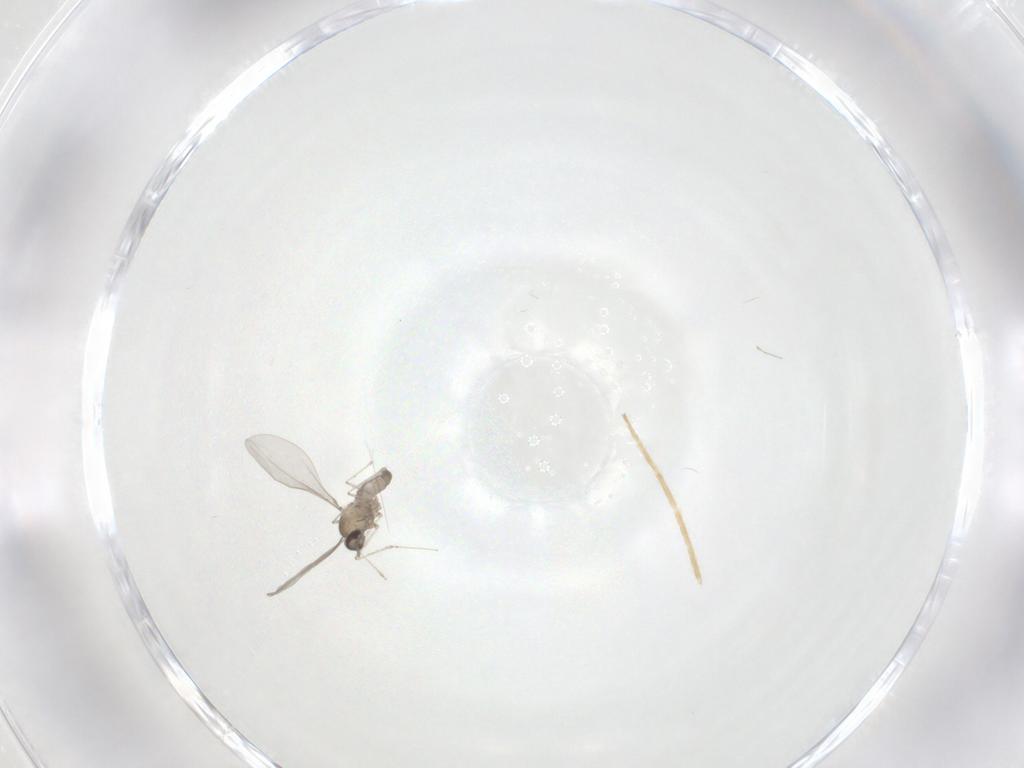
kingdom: Animalia
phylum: Arthropoda
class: Insecta
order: Diptera
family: Cecidomyiidae
